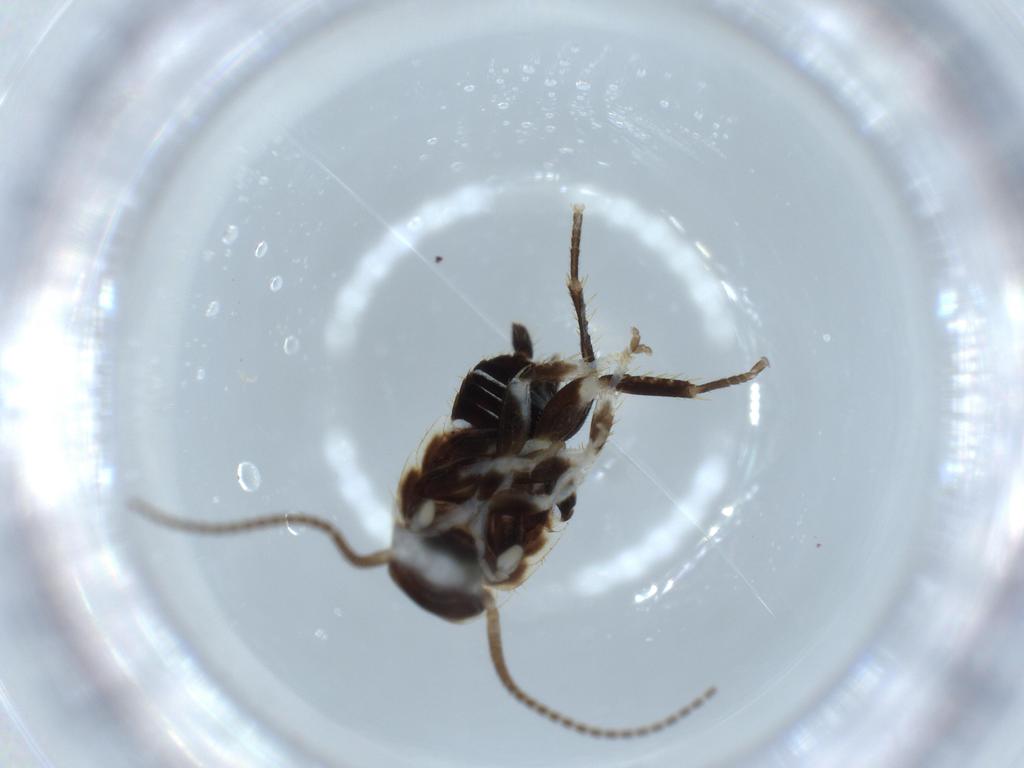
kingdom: Animalia
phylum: Arthropoda
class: Insecta
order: Blattodea
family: Ectobiidae
